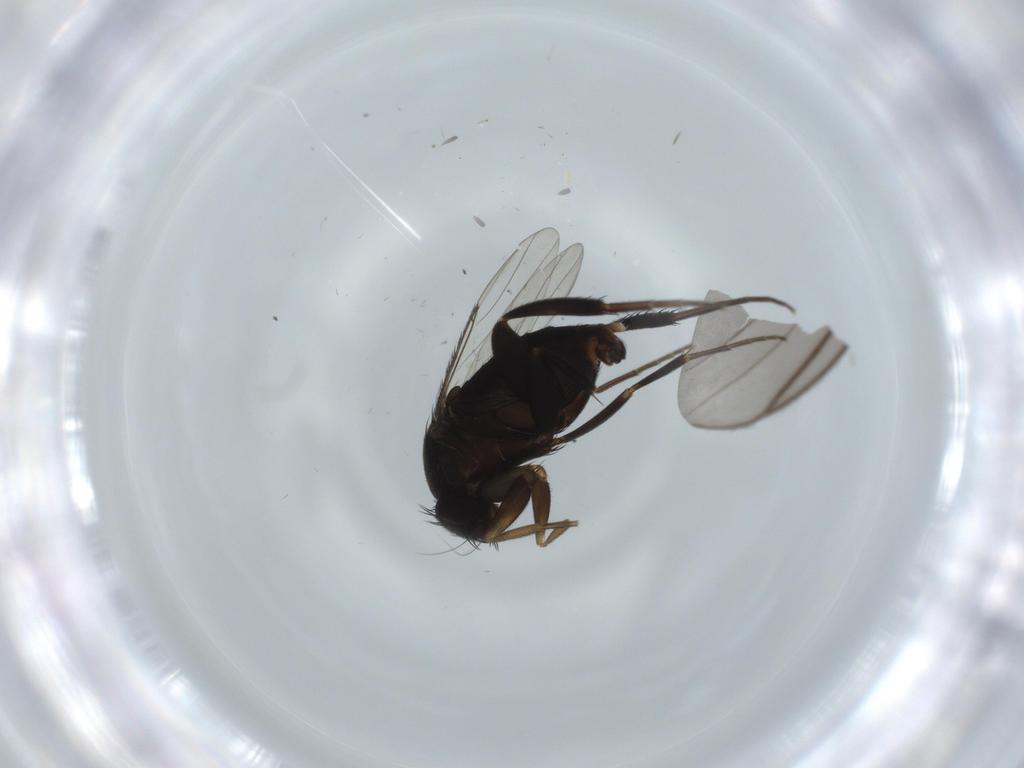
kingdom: Animalia
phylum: Arthropoda
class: Insecta
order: Diptera
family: Phoridae
